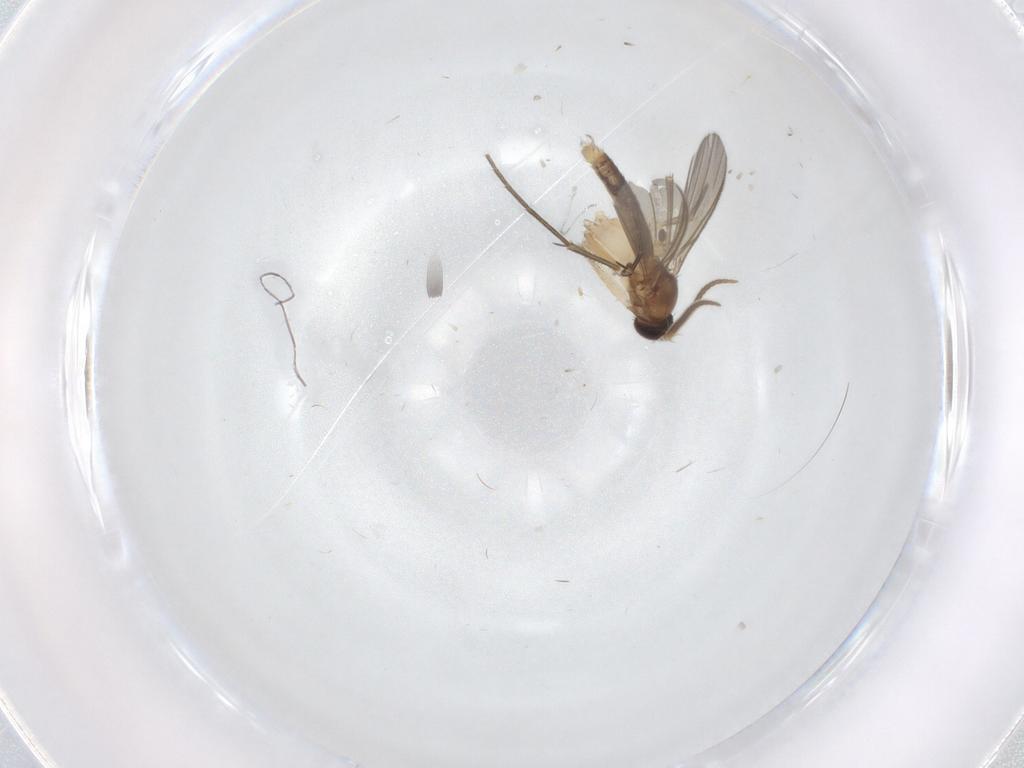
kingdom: Animalia
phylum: Arthropoda
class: Insecta
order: Diptera
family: Mycetophilidae
